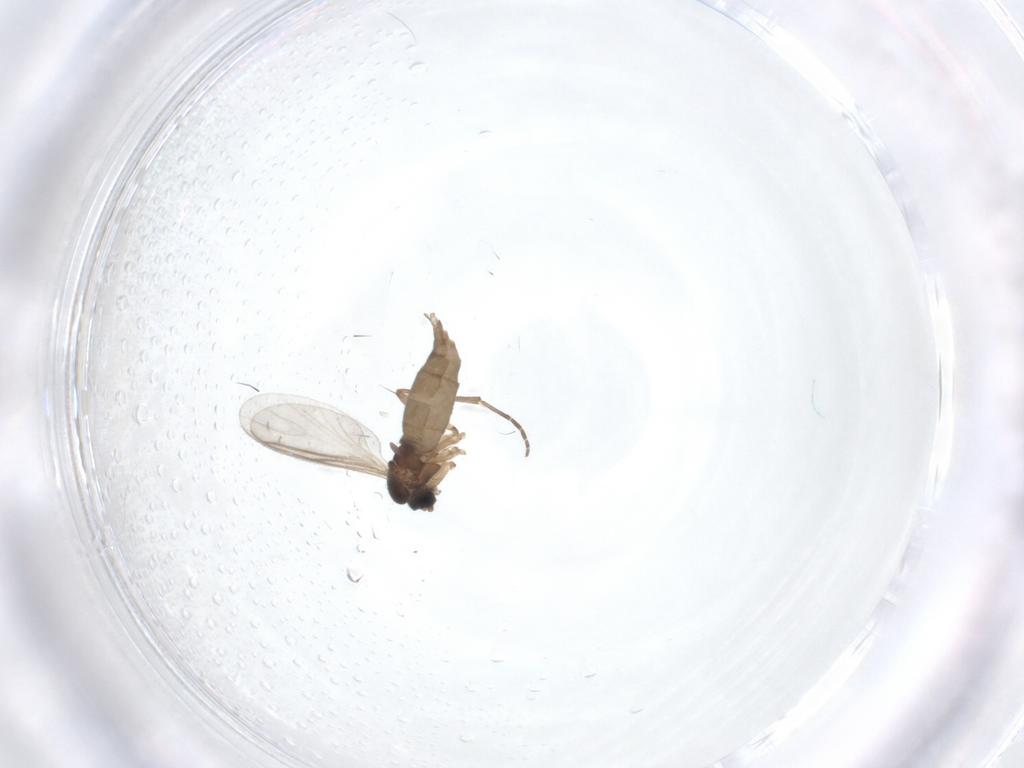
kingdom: Animalia
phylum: Arthropoda
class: Insecta
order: Diptera
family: Sciaridae
